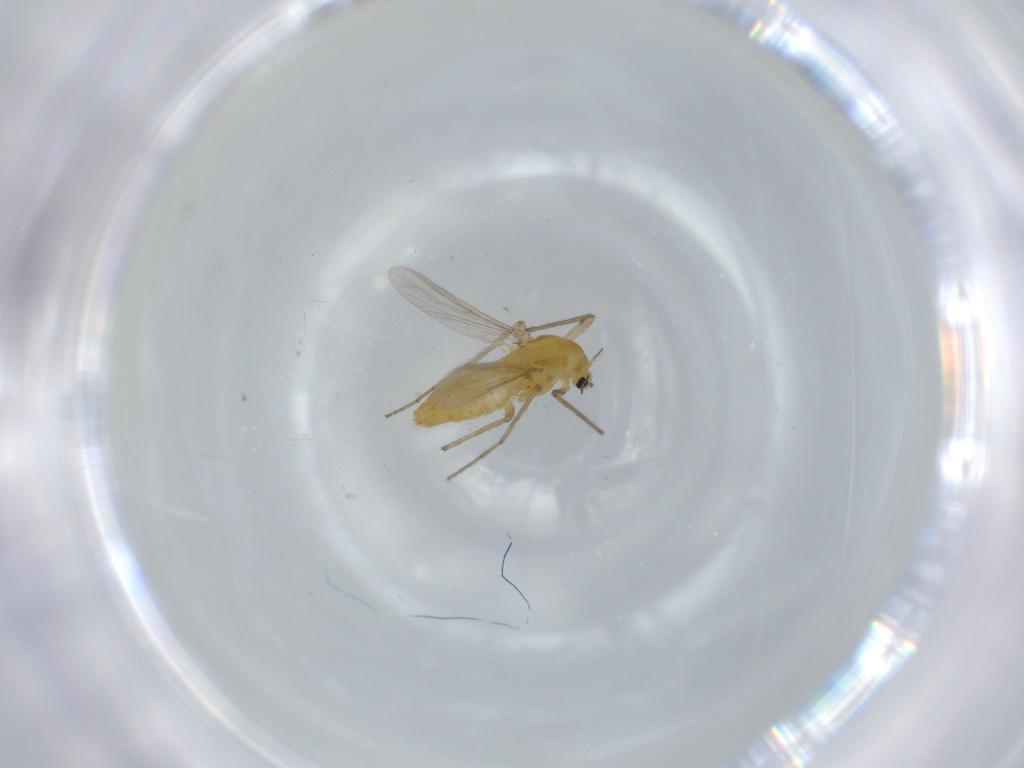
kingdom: Animalia
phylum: Arthropoda
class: Insecta
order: Diptera
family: Chironomidae
